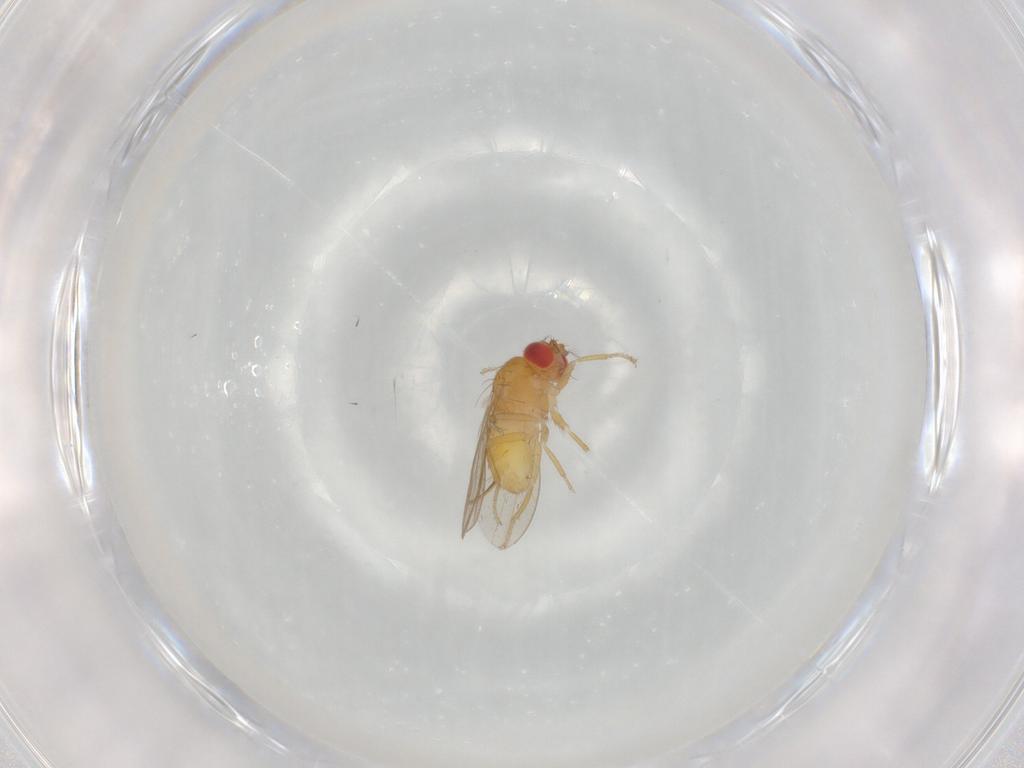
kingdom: Animalia
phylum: Arthropoda
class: Insecta
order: Diptera
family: Drosophilidae
